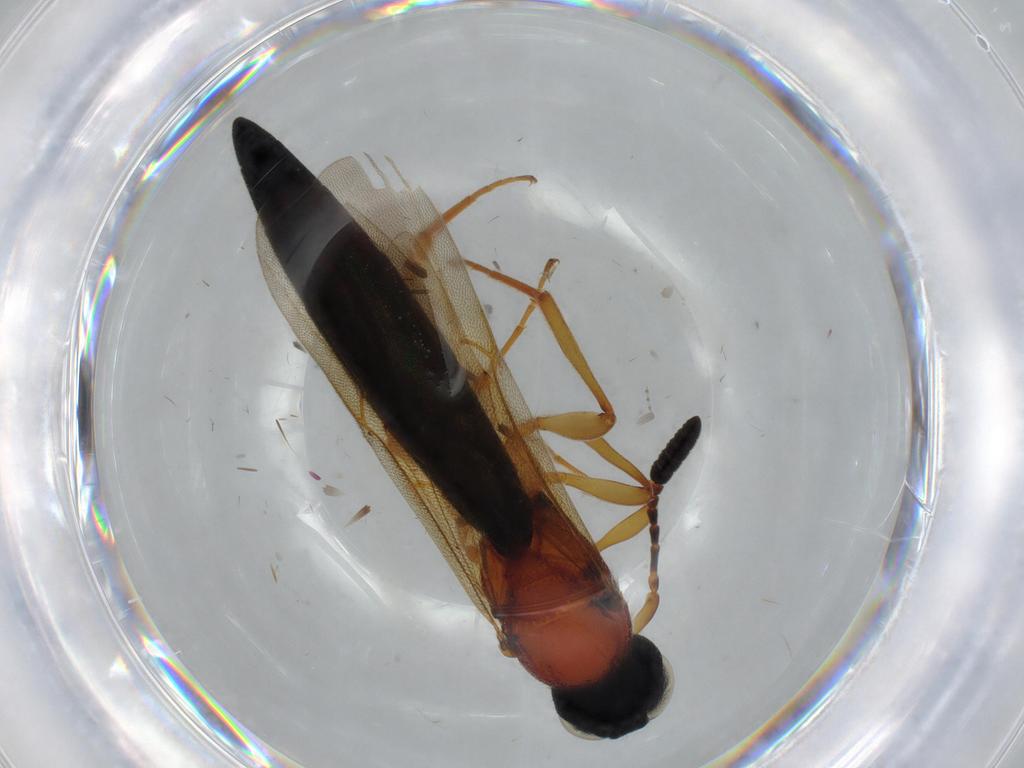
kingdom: Animalia
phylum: Arthropoda
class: Insecta
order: Hymenoptera
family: Scelionidae
